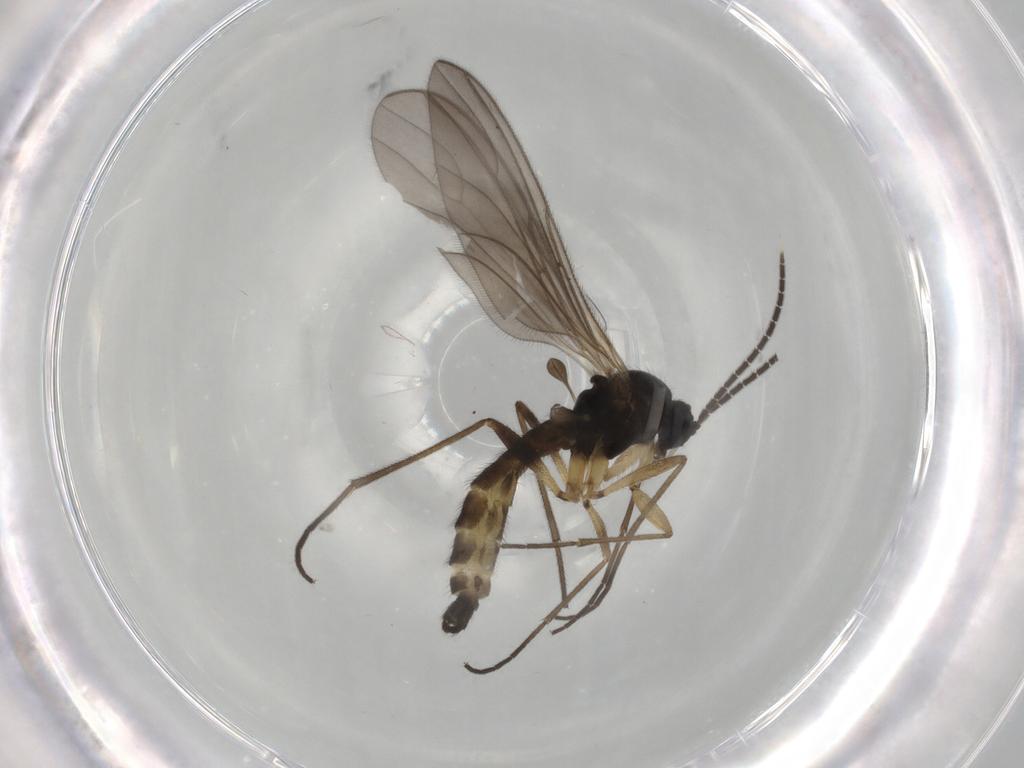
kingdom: Animalia
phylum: Arthropoda
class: Insecta
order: Diptera
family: Sciaridae
